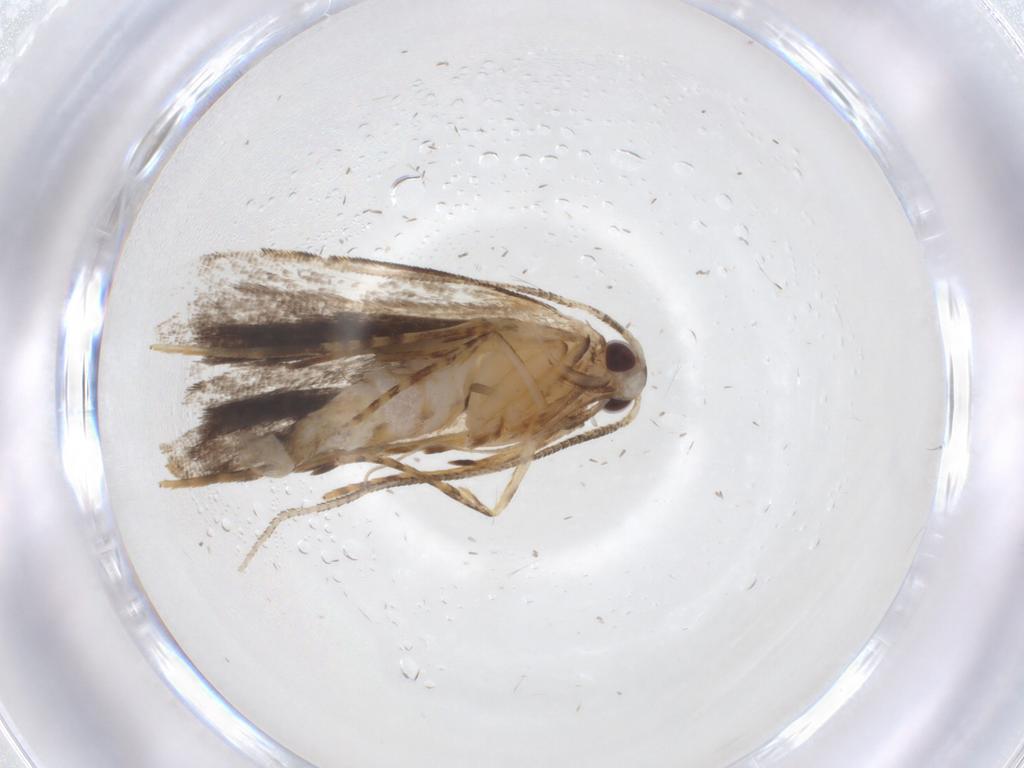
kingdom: Animalia
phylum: Arthropoda
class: Insecta
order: Lepidoptera
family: Cosmopterigidae
